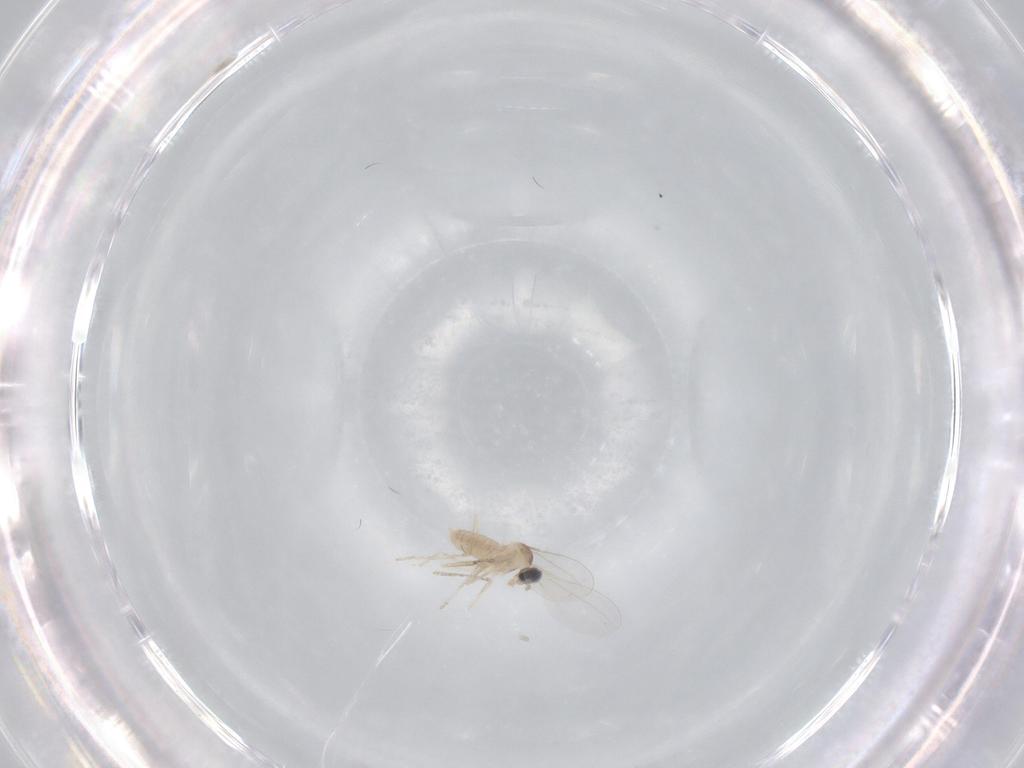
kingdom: Animalia
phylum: Arthropoda
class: Insecta
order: Diptera
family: Cecidomyiidae
